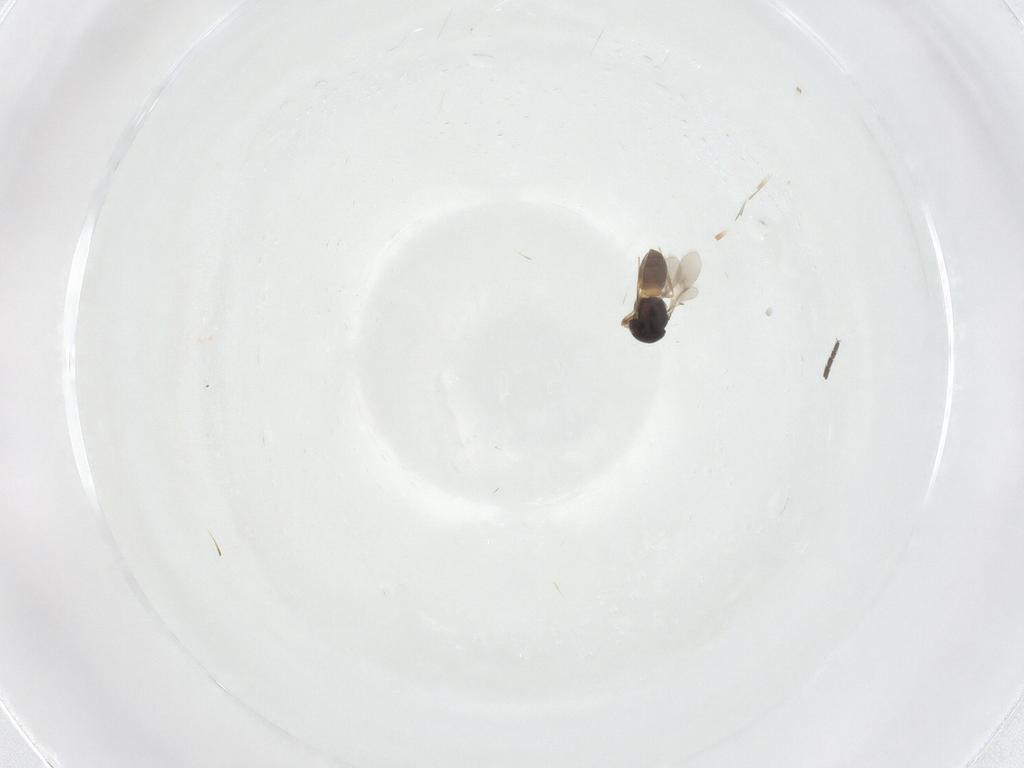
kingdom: Animalia
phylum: Arthropoda
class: Insecta
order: Hymenoptera
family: Scelionidae
